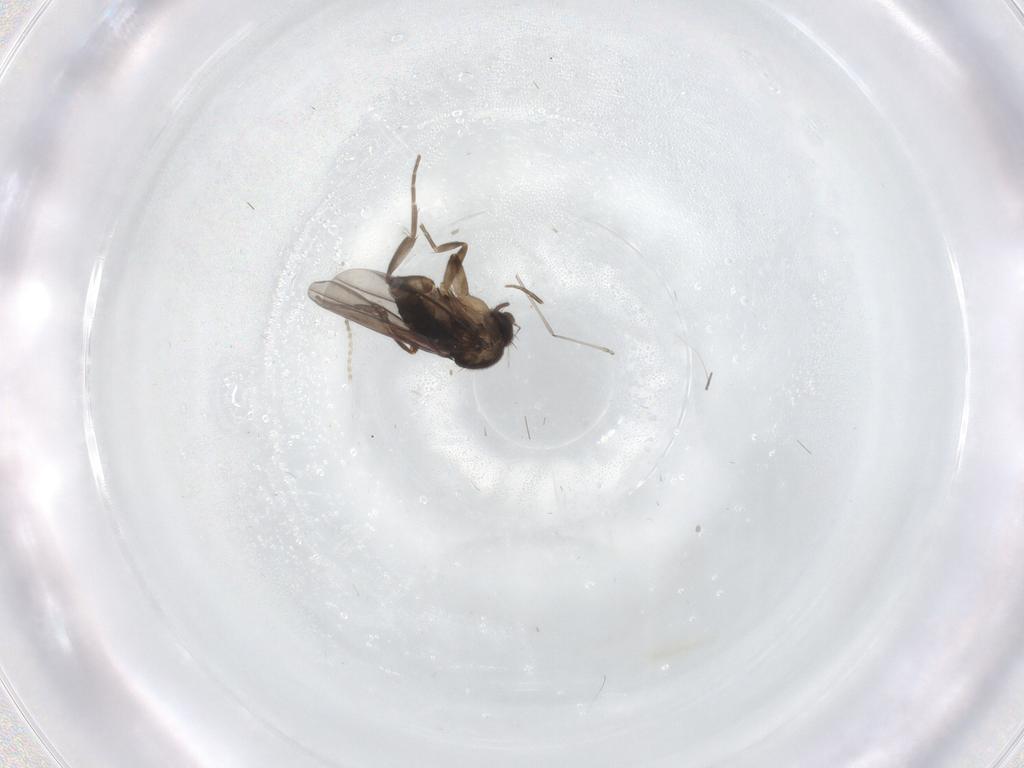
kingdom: Animalia
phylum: Arthropoda
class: Insecta
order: Diptera
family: Phoridae
